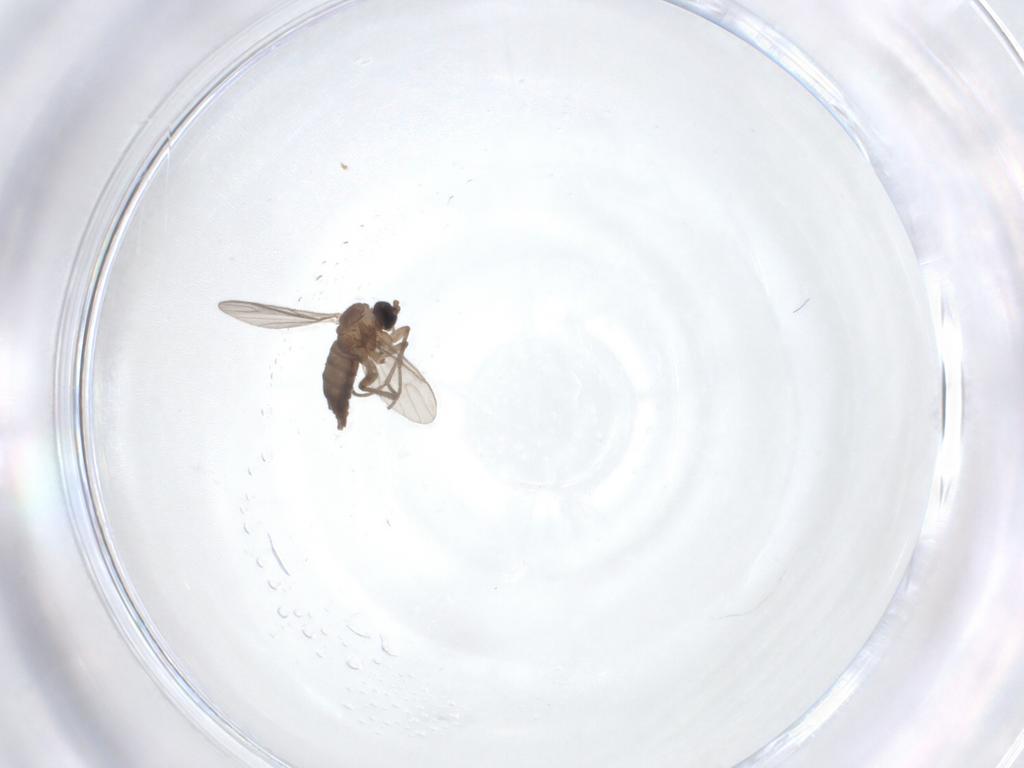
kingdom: Animalia
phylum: Arthropoda
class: Insecta
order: Diptera
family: Sciaridae
